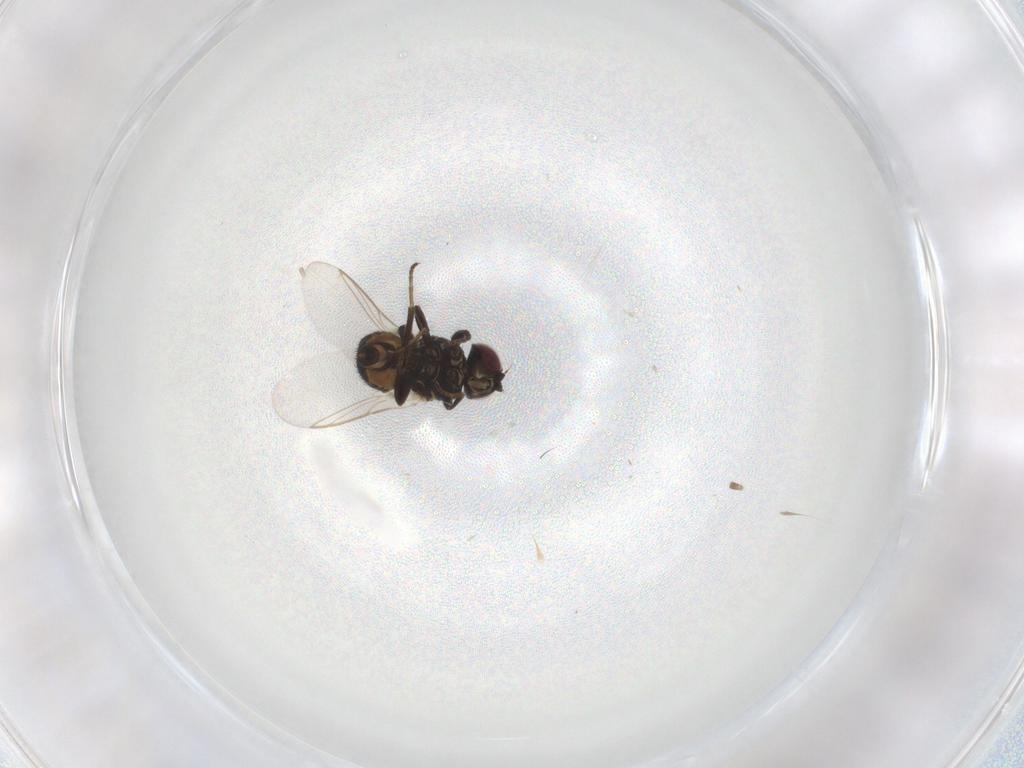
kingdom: Animalia
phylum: Arthropoda
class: Insecta
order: Diptera
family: Agromyzidae
